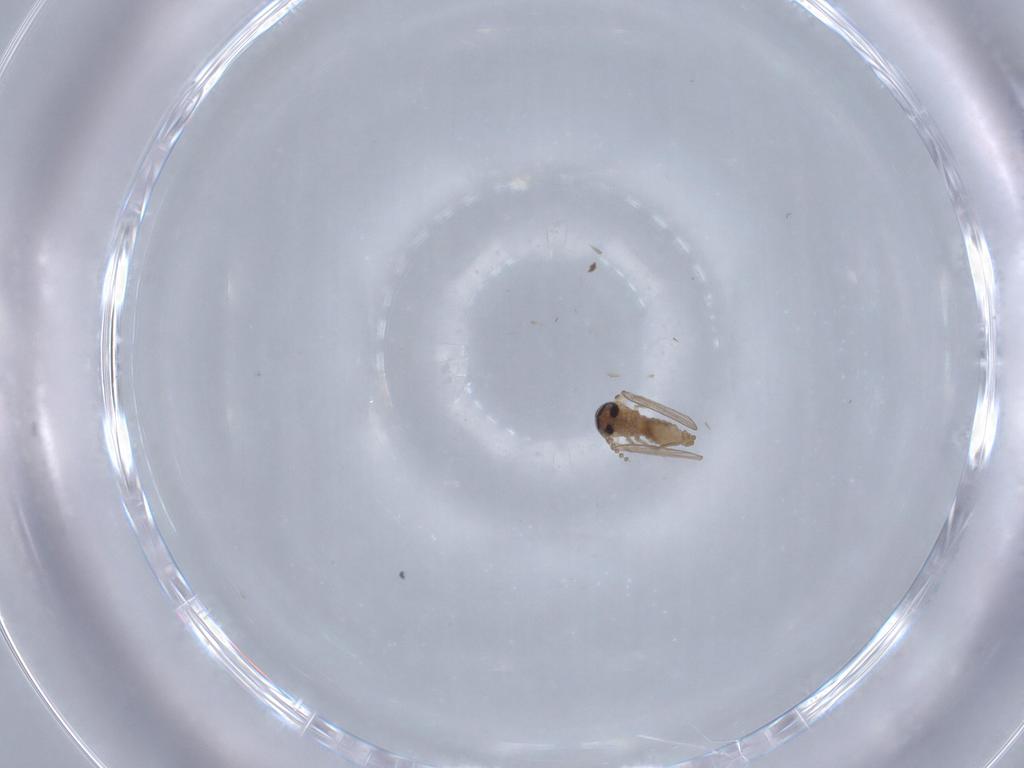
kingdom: Animalia
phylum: Arthropoda
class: Insecta
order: Diptera
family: Psychodidae
